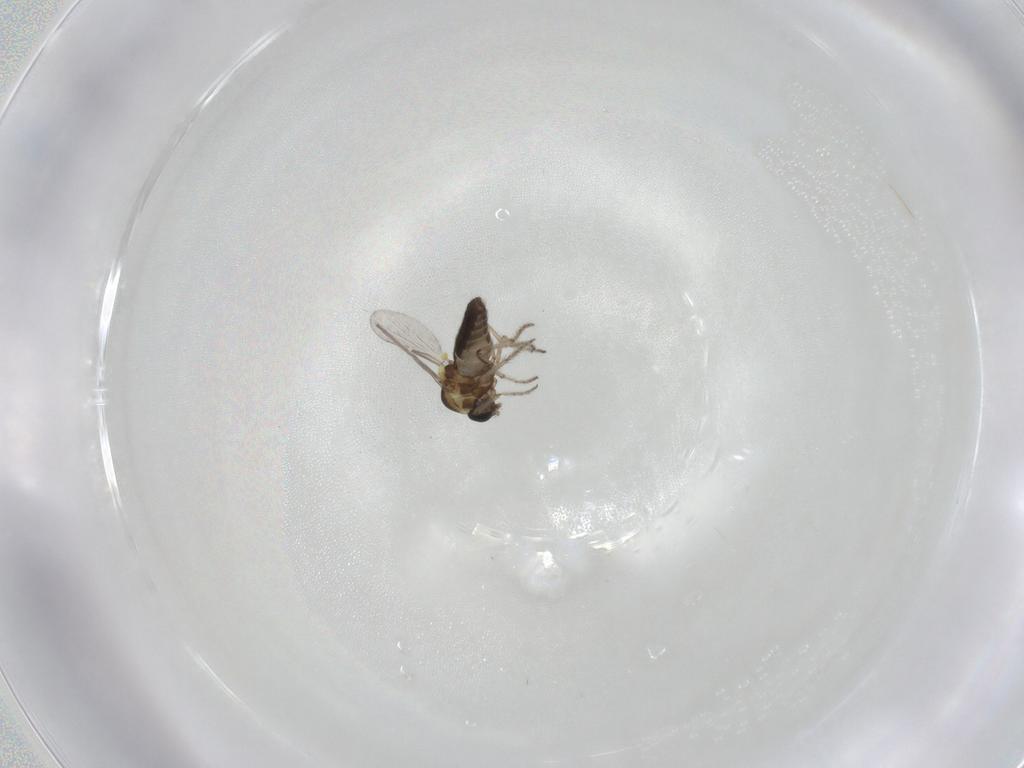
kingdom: Animalia
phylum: Arthropoda
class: Insecta
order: Diptera
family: Ceratopogonidae
